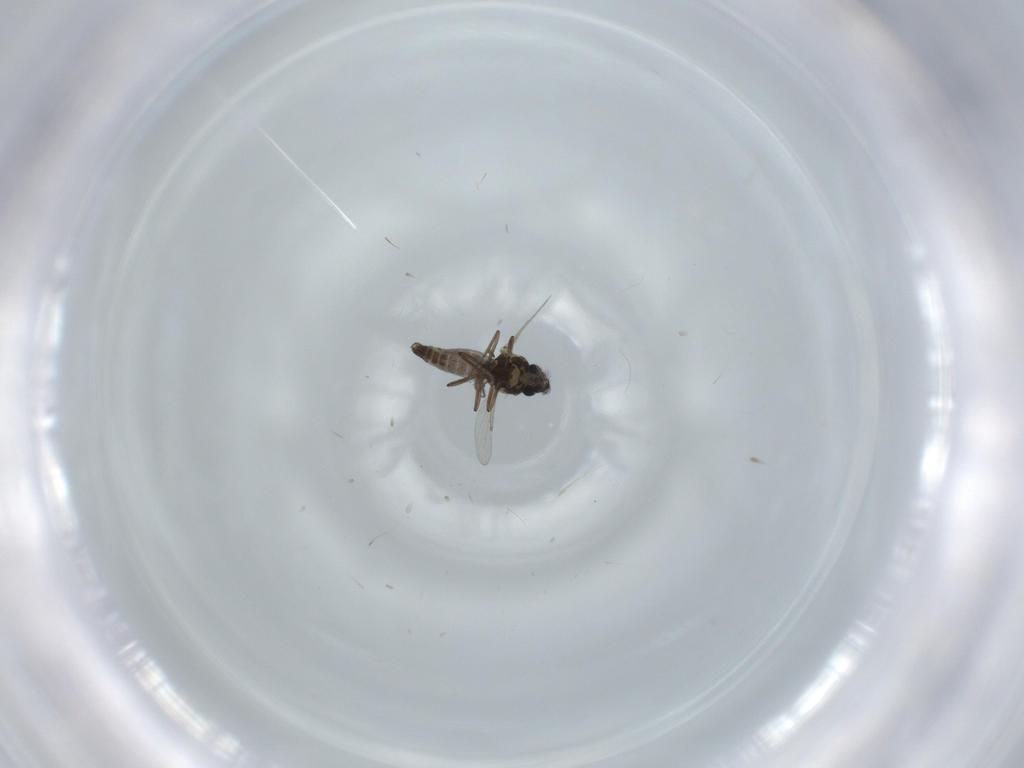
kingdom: Animalia
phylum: Arthropoda
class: Insecta
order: Diptera
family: Ceratopogonidae
